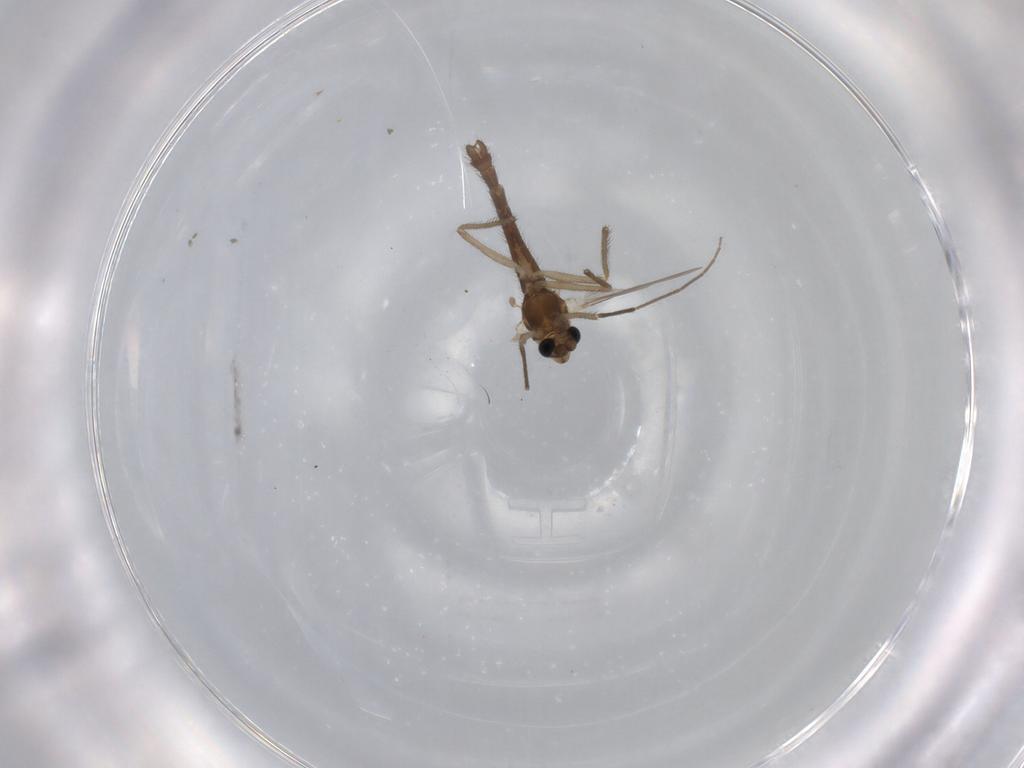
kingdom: Animalia
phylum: Arthropoda
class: Insecta
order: Diptera
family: Chironomidae
